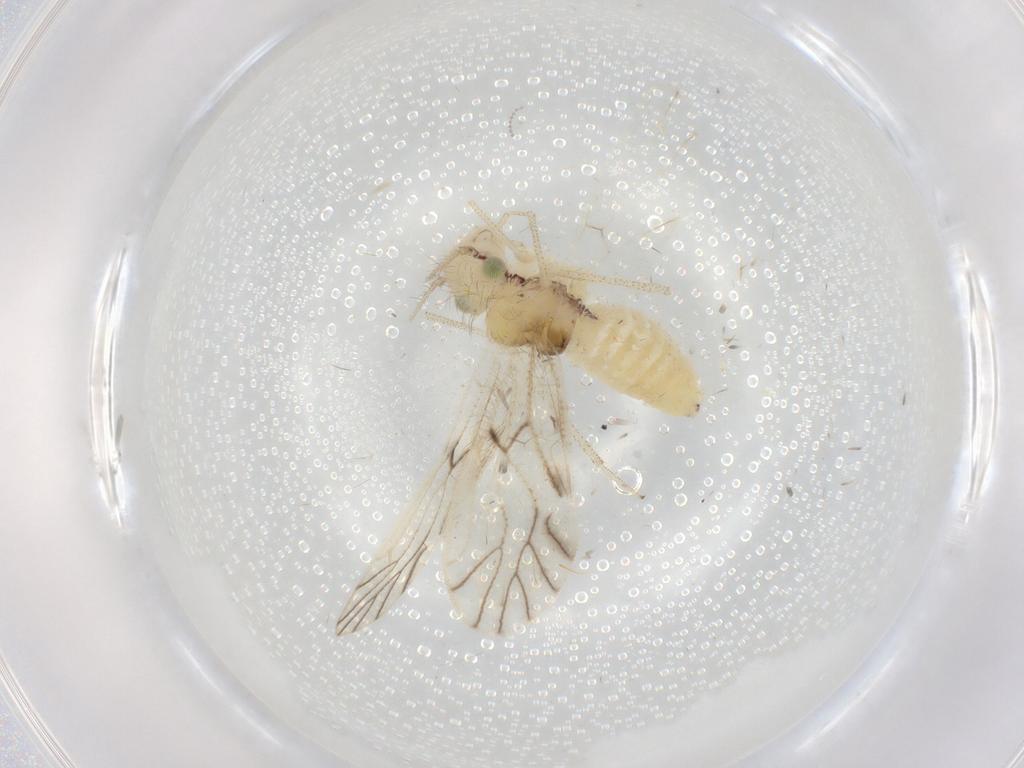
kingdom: Animalia
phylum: Arthropoda
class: Insecta
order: Psocodea
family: Philotarsidae
